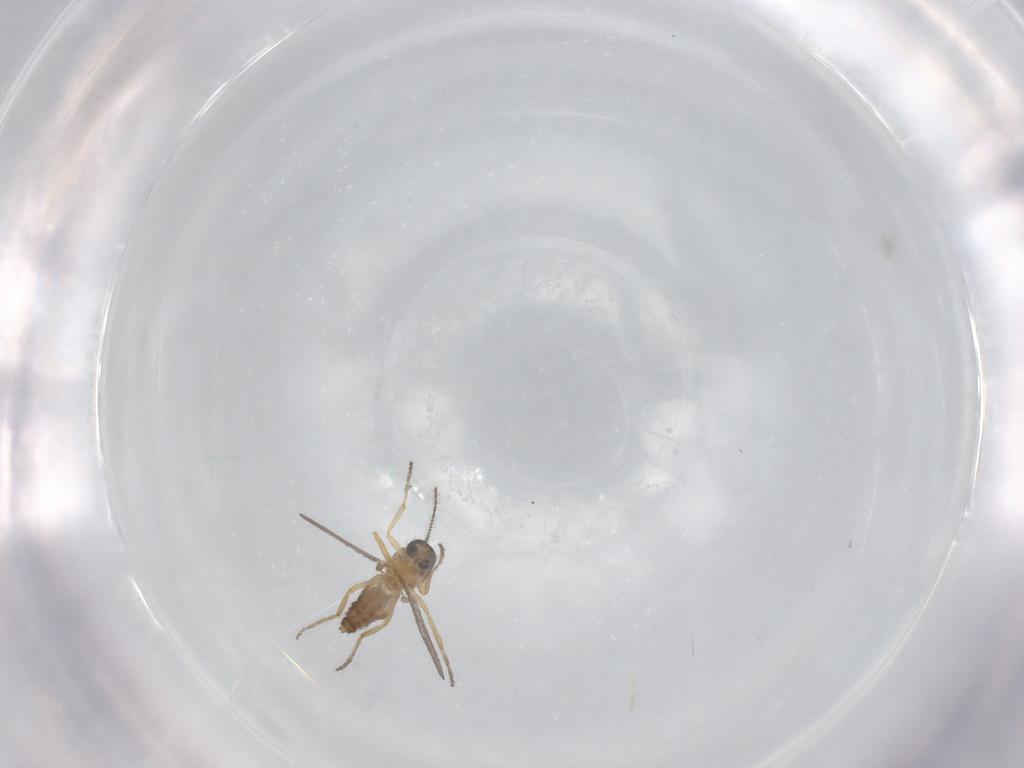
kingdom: Animalia
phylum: Arthropoda
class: Insecta
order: Diptera
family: Ceratopogonidae
